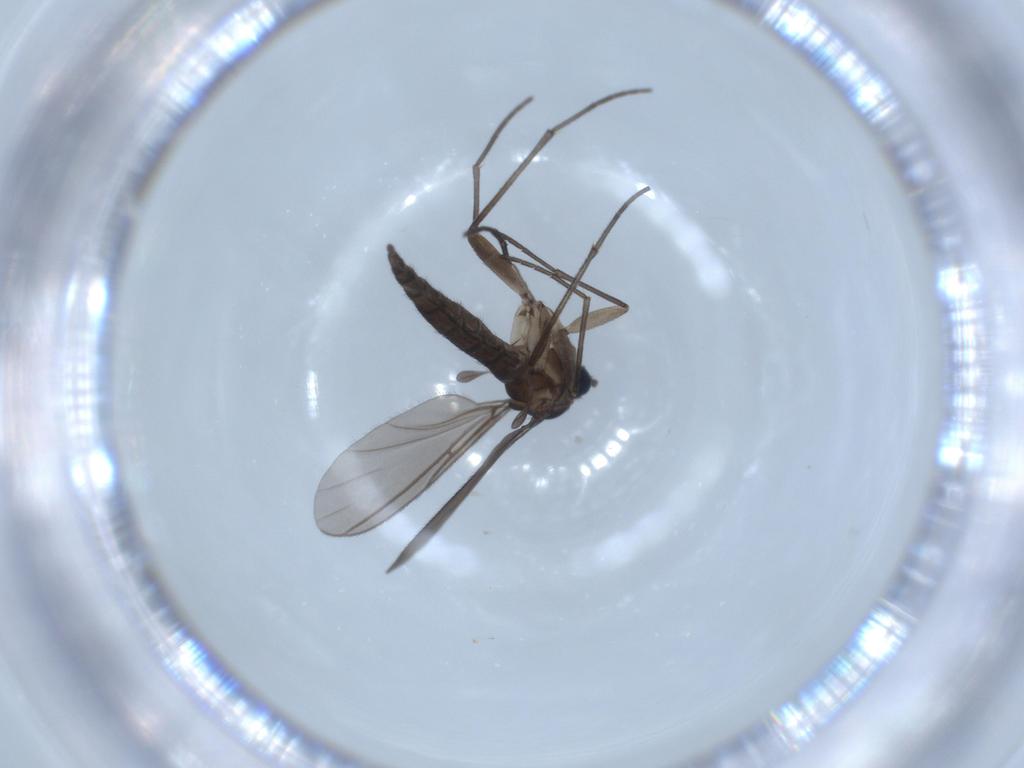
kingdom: Animalia
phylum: Arthropoda
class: Insecta
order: Diptera
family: Sciaridae
